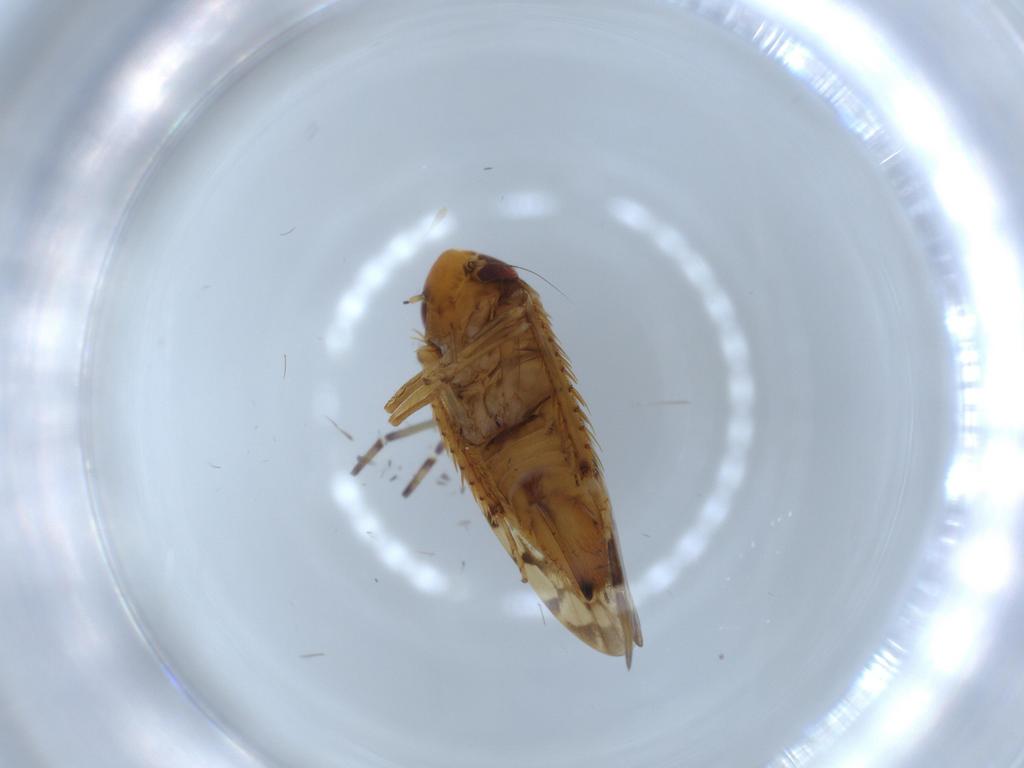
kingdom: Animalia
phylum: Arthropoda
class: Insecta
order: Hemiptera
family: Cicadellidae
